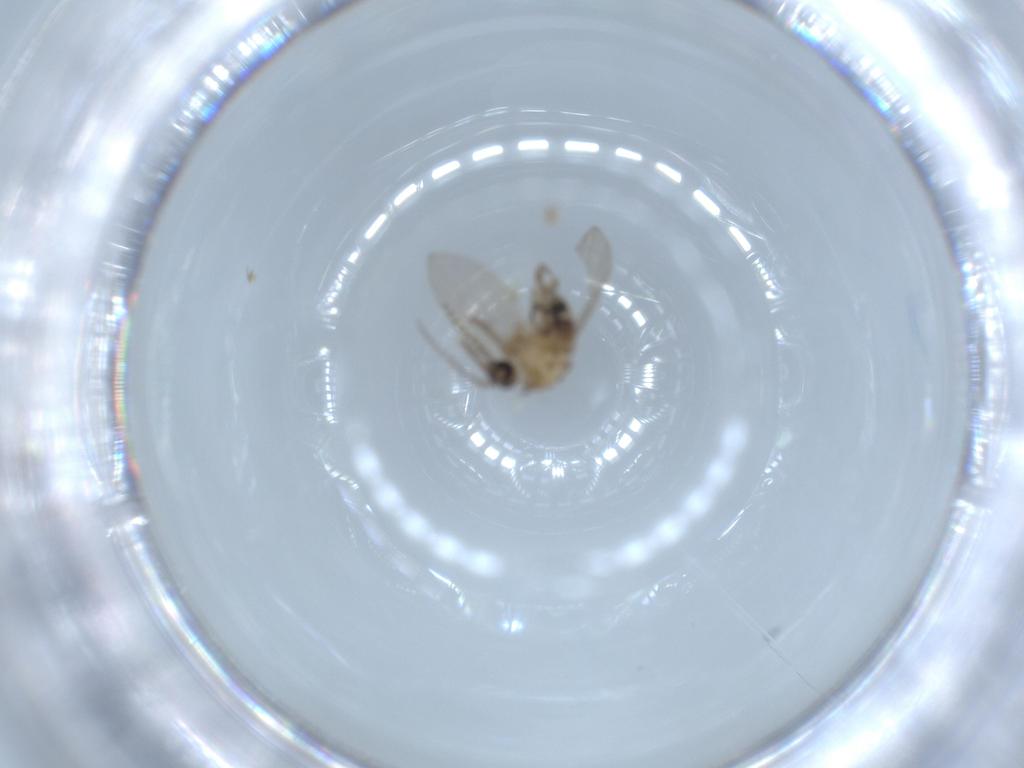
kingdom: Animalia
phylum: Arthropoda
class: Insecta
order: Diptera
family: Psychodidae
